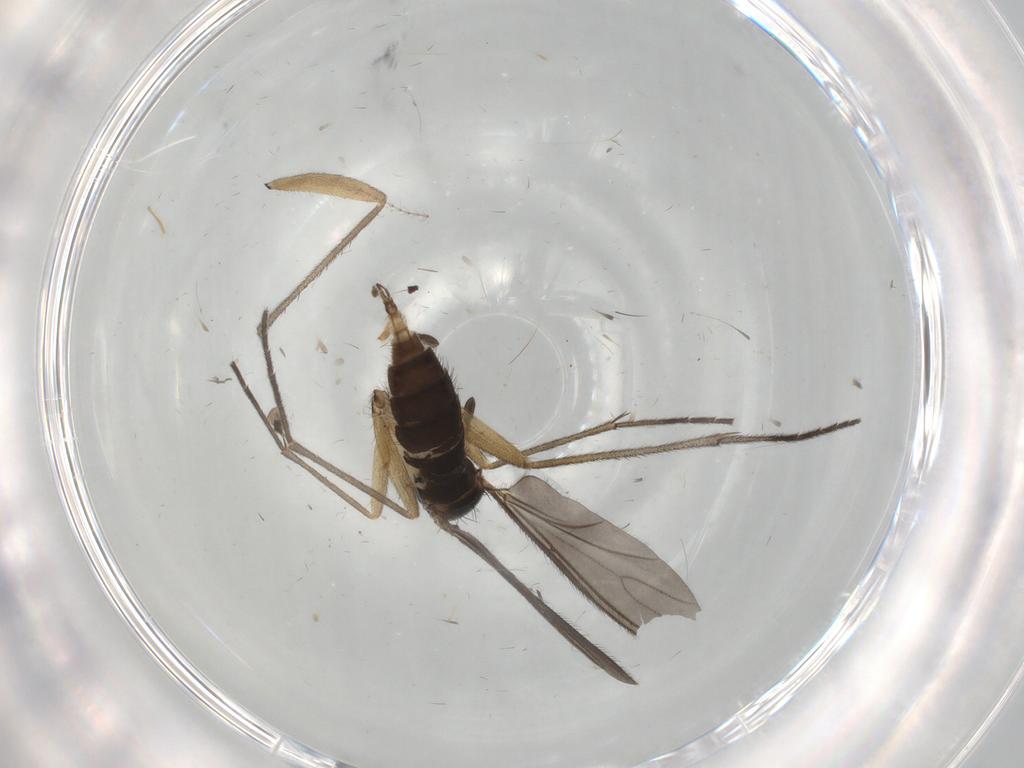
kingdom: Animalia
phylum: Arthropoda
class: Insecta
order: Diptera
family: Sciaridae
